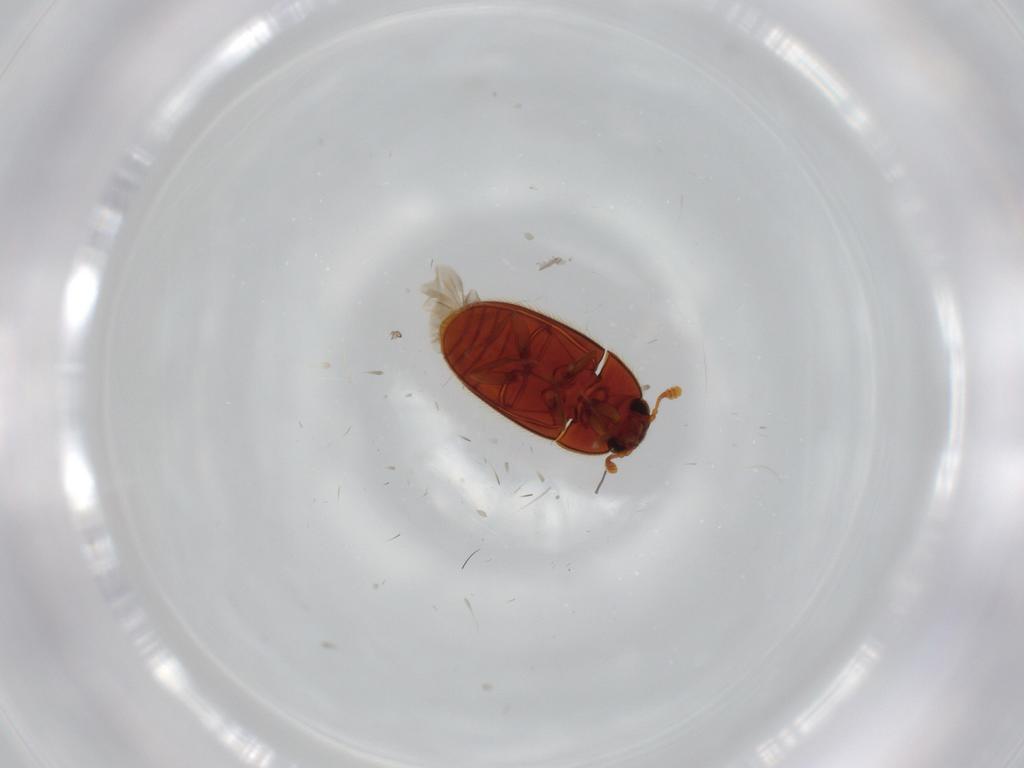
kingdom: Animalia
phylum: Arthropoda
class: Insecta
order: Coleoptera
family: Biphyllidae
